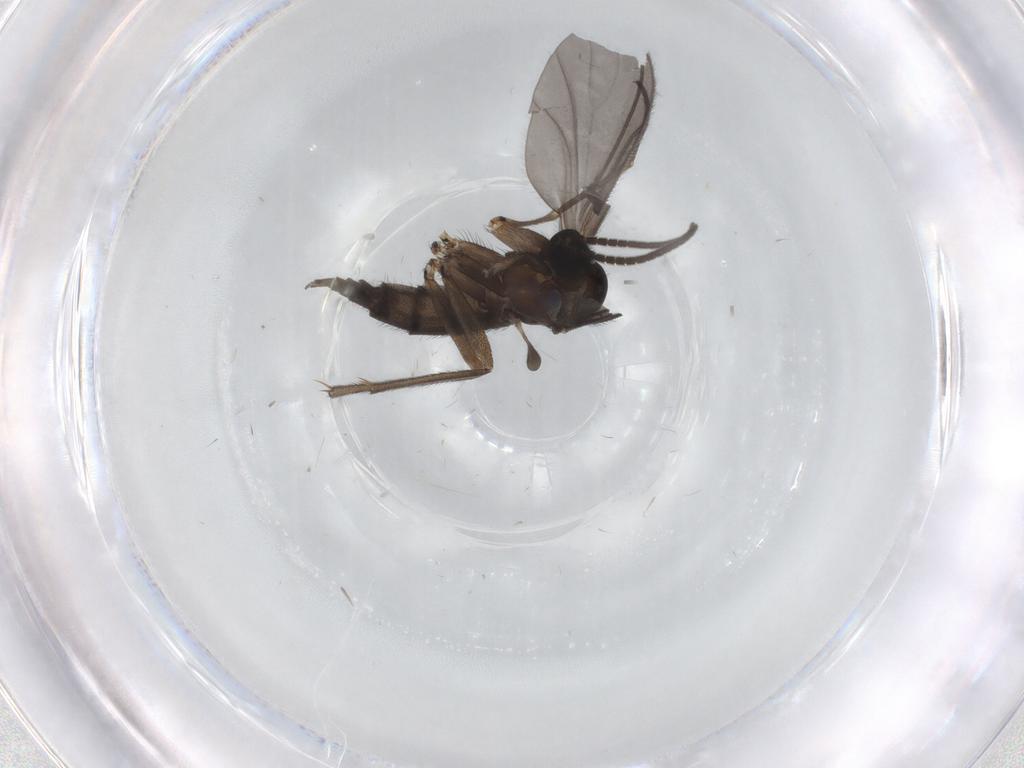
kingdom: Animalia
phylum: Arthropoda
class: Insecta
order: Diptera
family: Sciaridae
